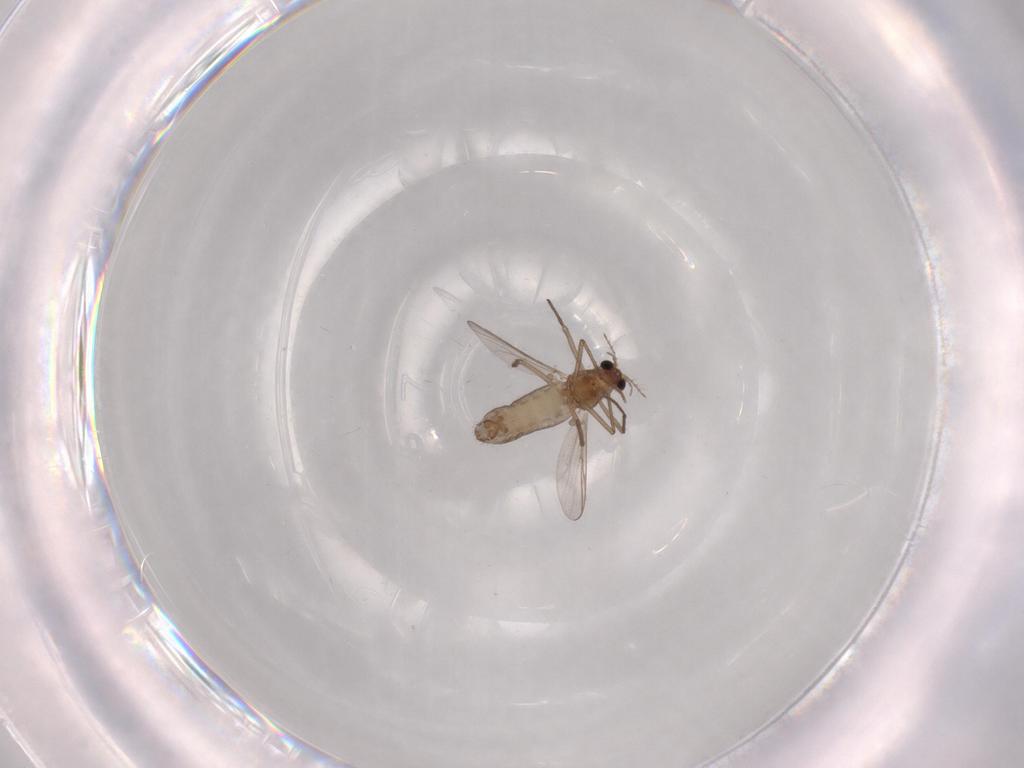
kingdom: Animalia
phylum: Arthropoda
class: Insecta
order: Diptera
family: Chironomidae
